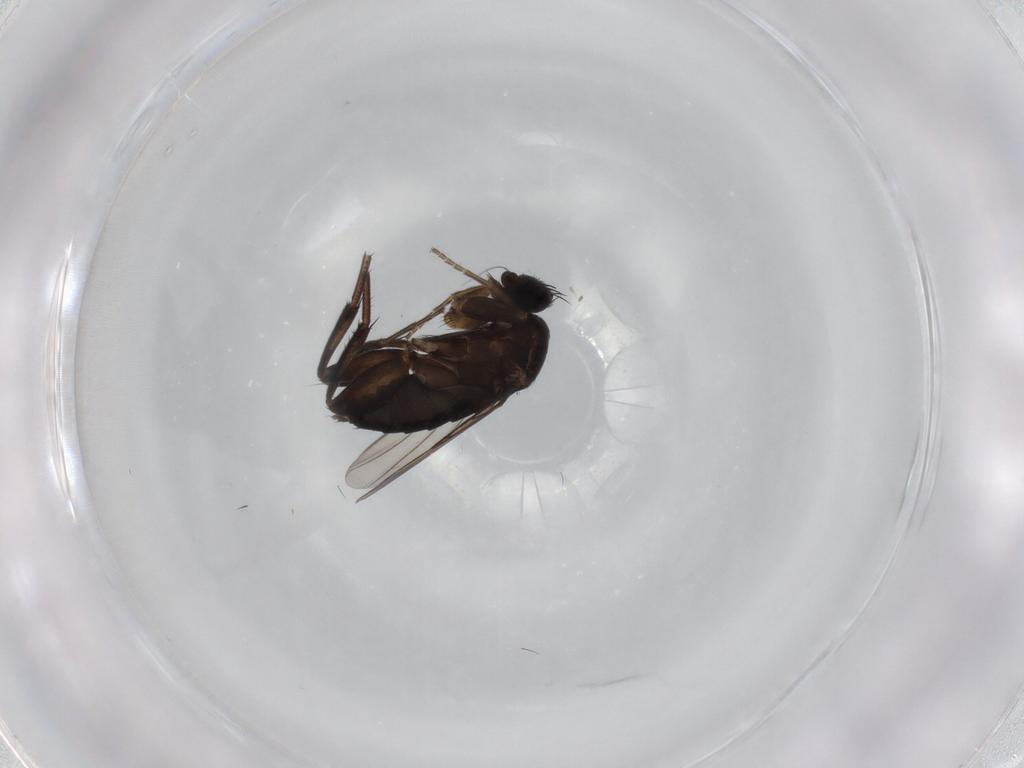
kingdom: Animalia
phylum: Arthropoda
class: Insecta
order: Diptera
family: Phoridae
